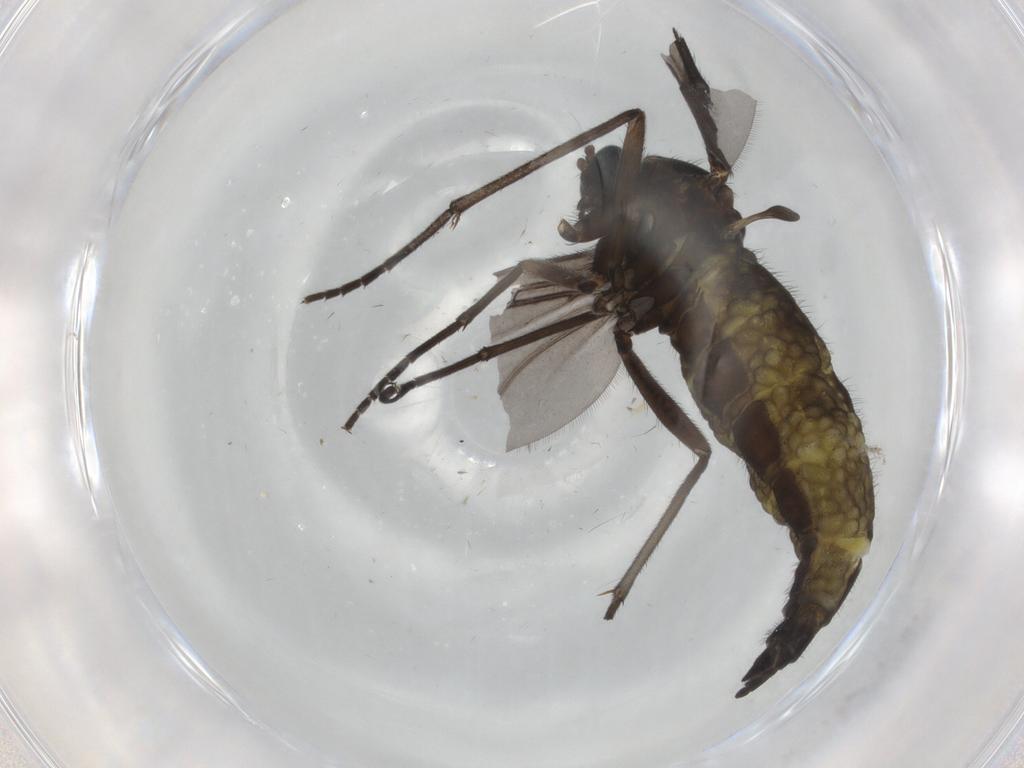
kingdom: Animalia
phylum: Arthropoda
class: Insecta
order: Diptera
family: Sciaridae
